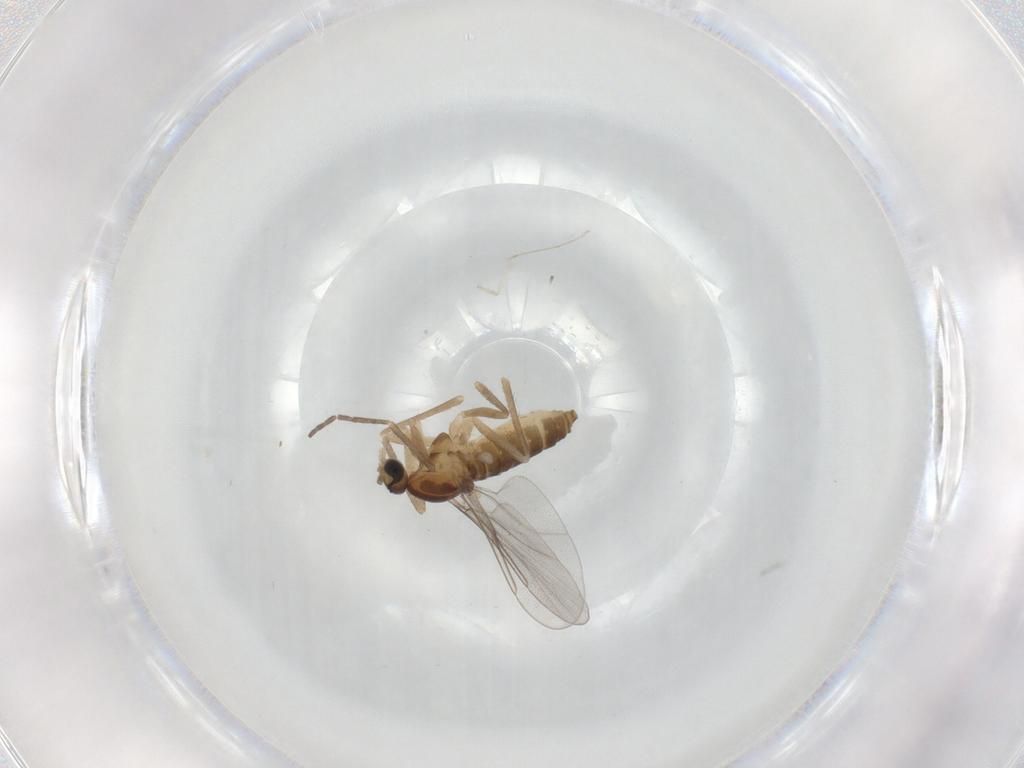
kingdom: Animalia
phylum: Arthropoda
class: Insecta
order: Diptera
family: Cecidomyiidae
